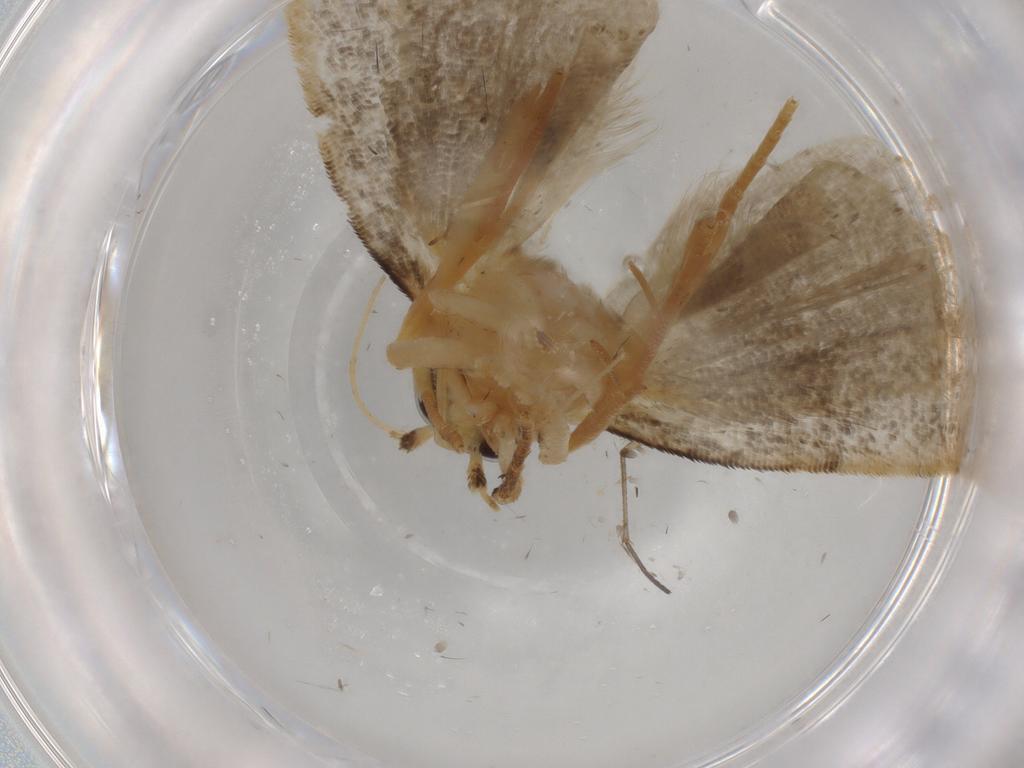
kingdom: Animalia
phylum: Arthropoda
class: Insecta
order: Lepidoptera
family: Erebidae
